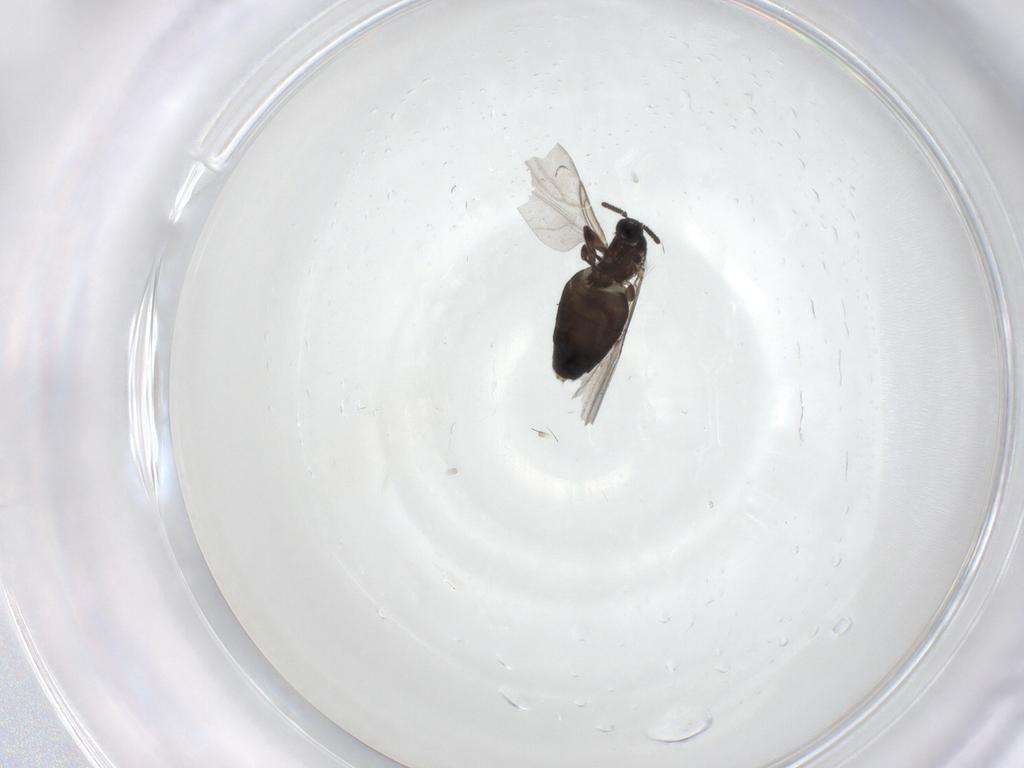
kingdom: Animalia
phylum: Arthropoda
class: Insecta
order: Diptera
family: Scatopsidae
